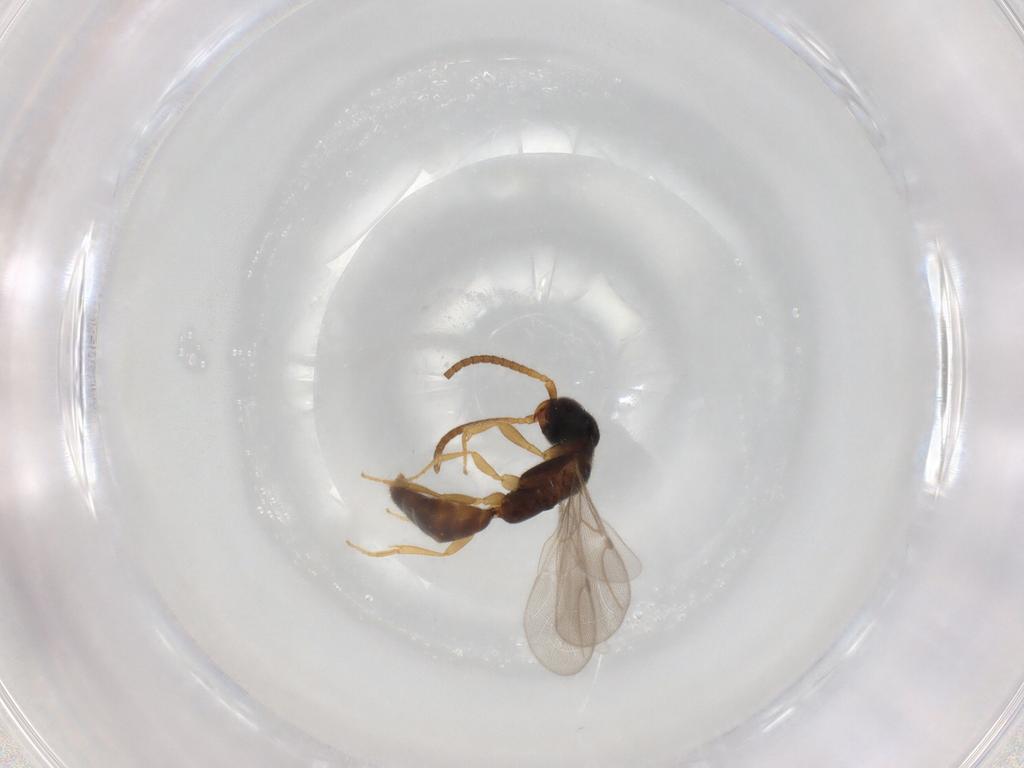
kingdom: Animalia
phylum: Arthropoda
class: Insecta
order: Hymenoptera
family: Bethylidae
